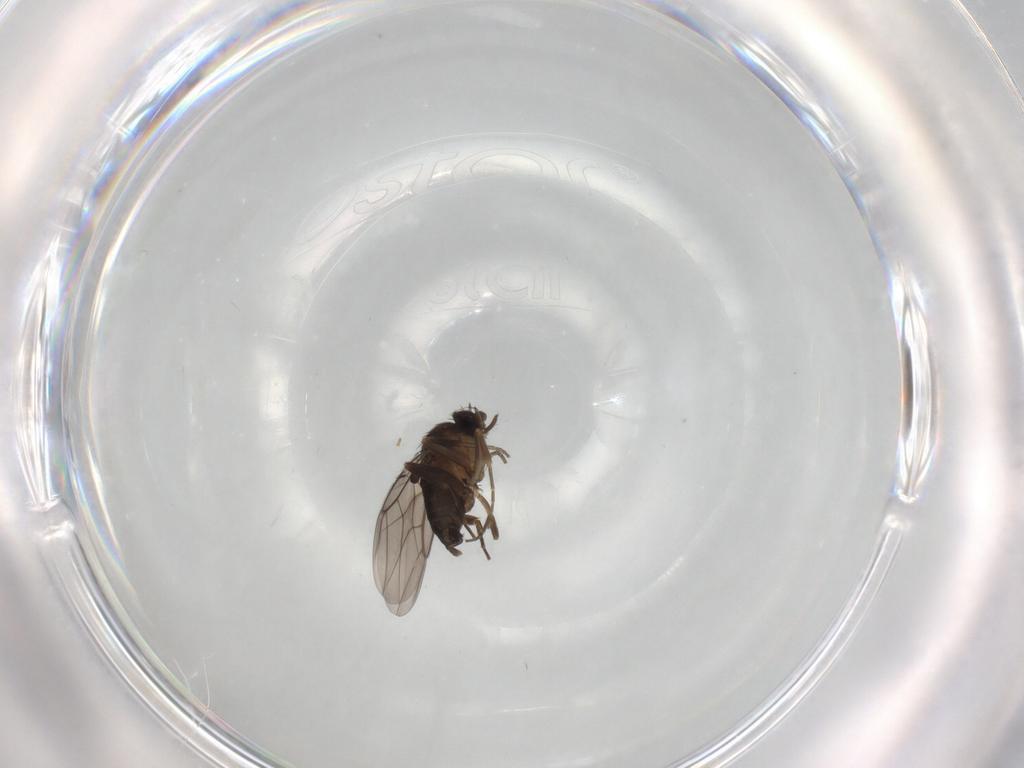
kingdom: Animalia
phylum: Arthropoda
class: Insecta
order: Diptera
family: Phoridae
